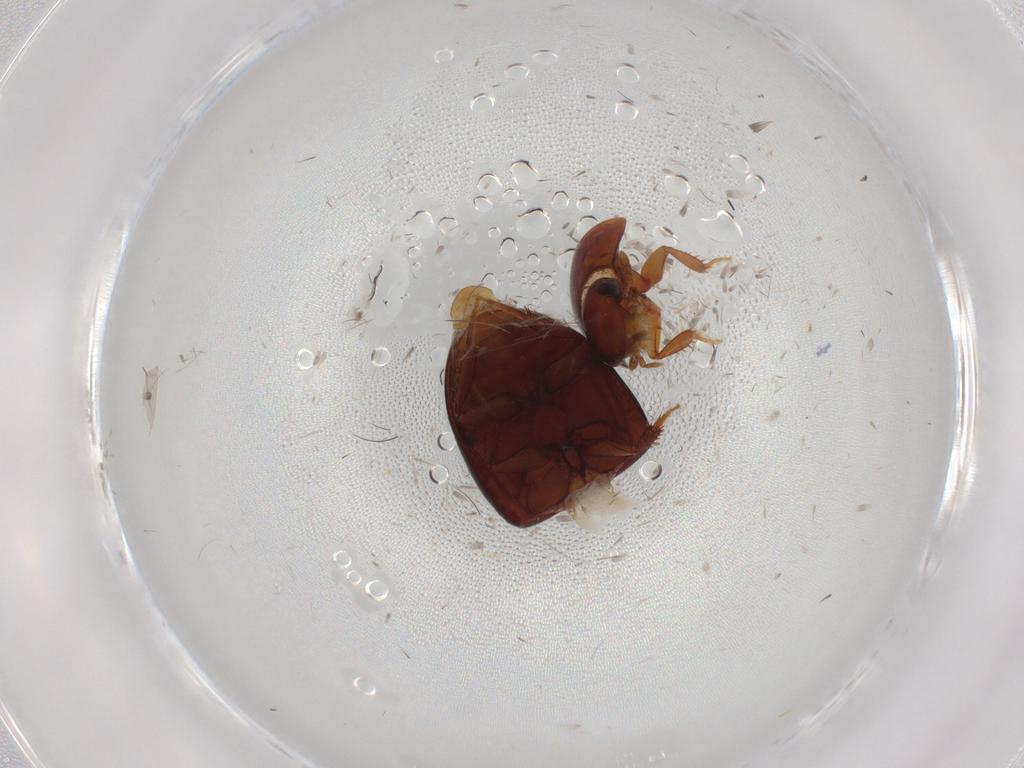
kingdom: Animalia
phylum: Arthropoda
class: Insecta
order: Coleoptera
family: Hydrophilidae
